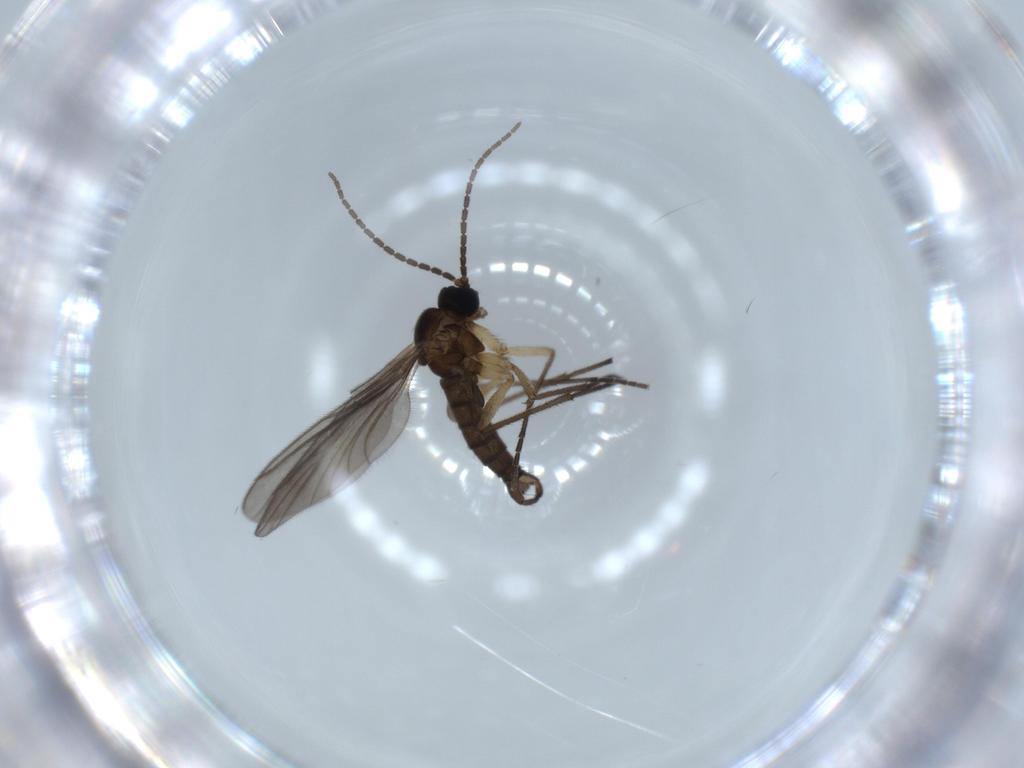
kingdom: Animalia
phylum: Arthropoda
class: Insecta
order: Diptera
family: Sciaridae
